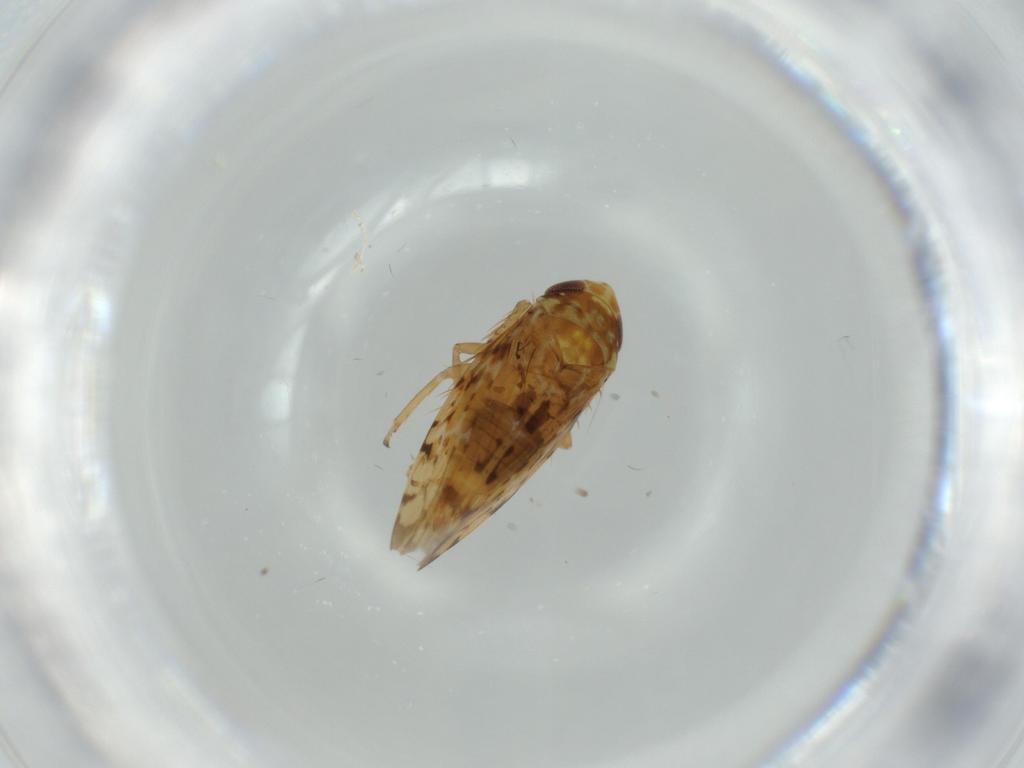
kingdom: Animalia
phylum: Arthropoda
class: Insecta
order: Hemiptera
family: Cicadellidae
